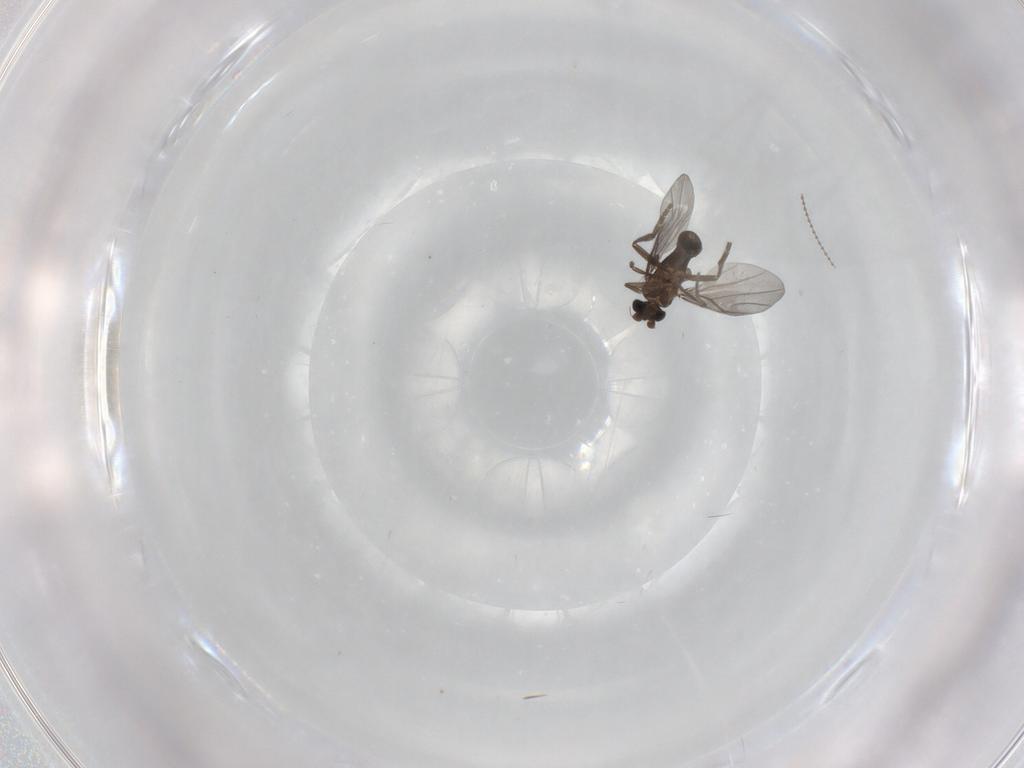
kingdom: Animalia
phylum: Arthropoda
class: Insecta
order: Diptera
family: Cecidomyiidae
